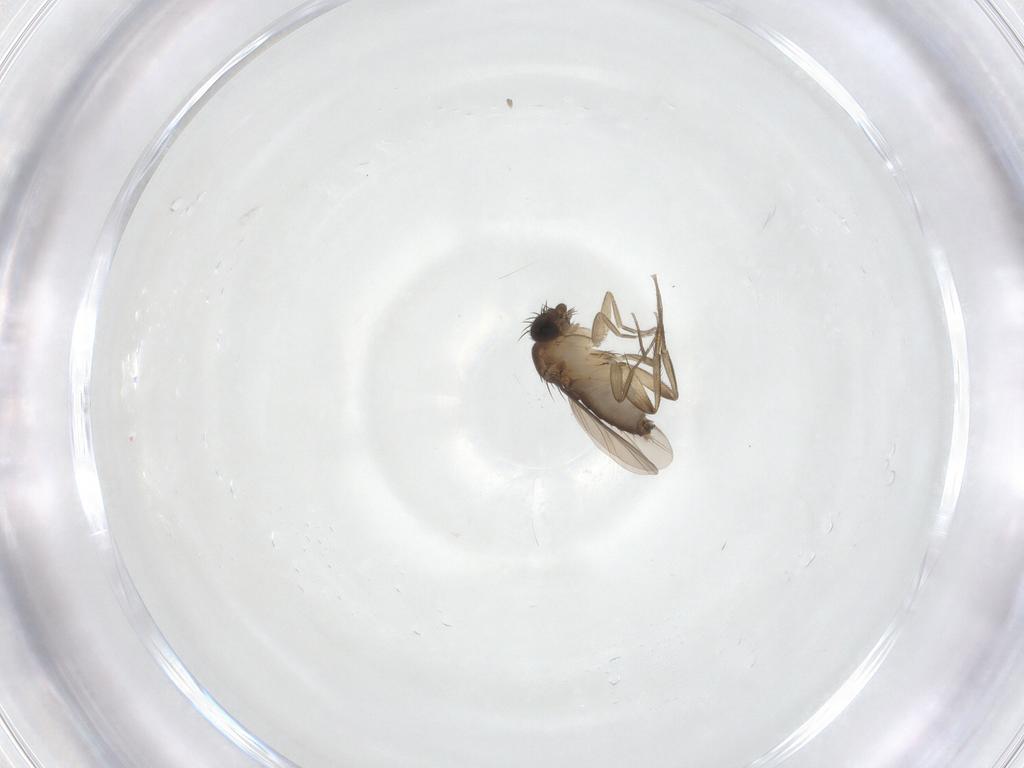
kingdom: Animalia
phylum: Arthropoda
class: Insecta
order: Diptera
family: Phoridae
